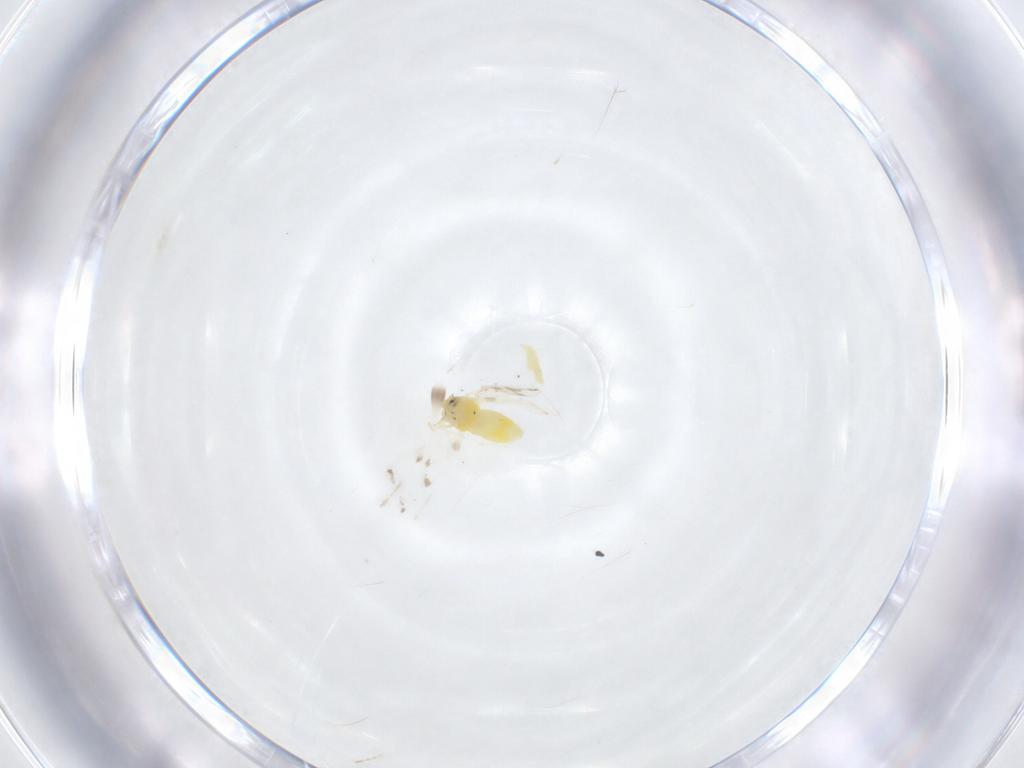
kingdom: Animalia
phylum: Arthropoda
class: Insecta
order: Hemiptera
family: Aleyrodidae
